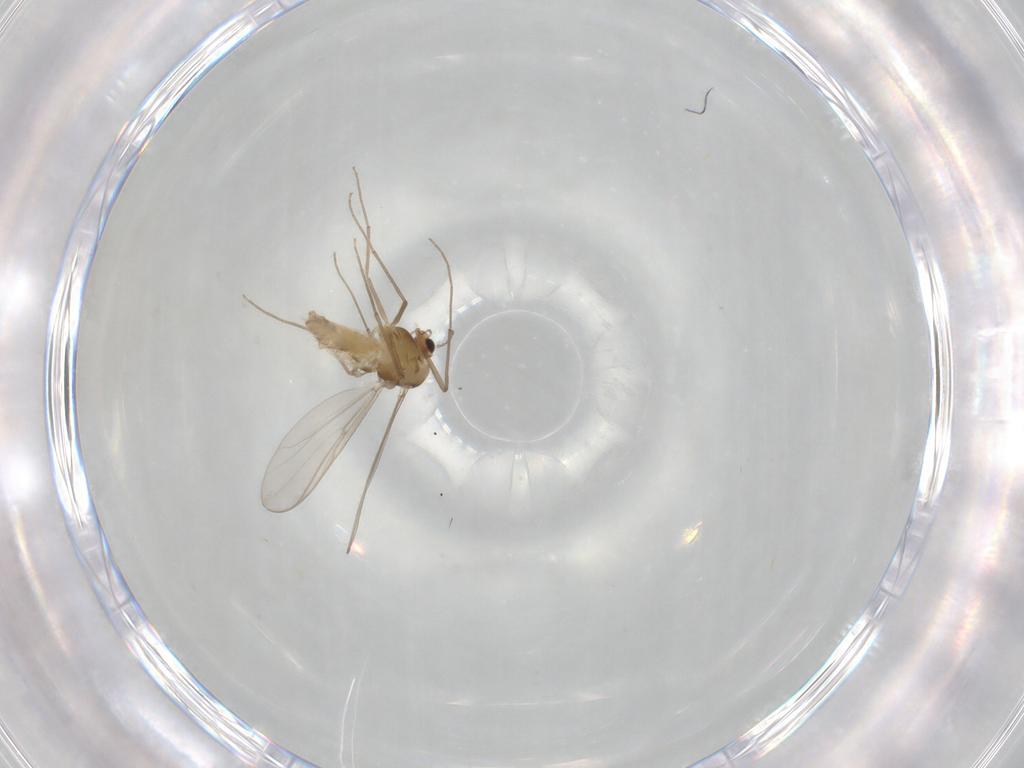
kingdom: Animalia
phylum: Arthropoda
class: Insecta
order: Diptera
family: Chironomidae
